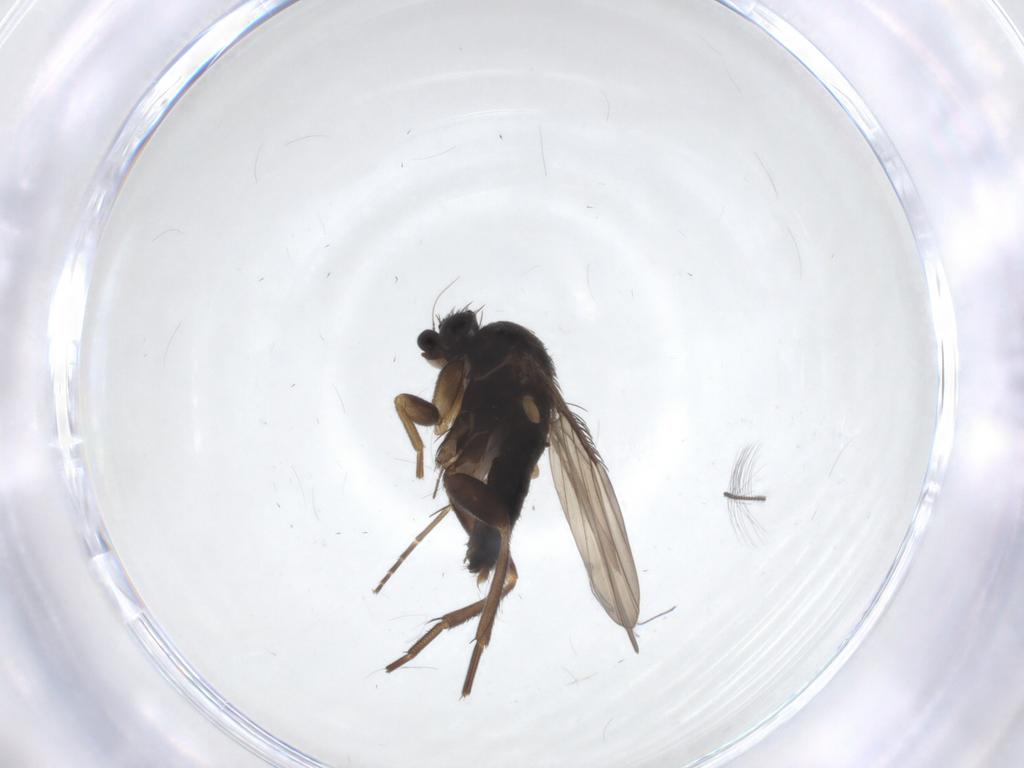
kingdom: Animalia
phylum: Arthropoda
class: Insecta
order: Diptera
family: Phoridae
